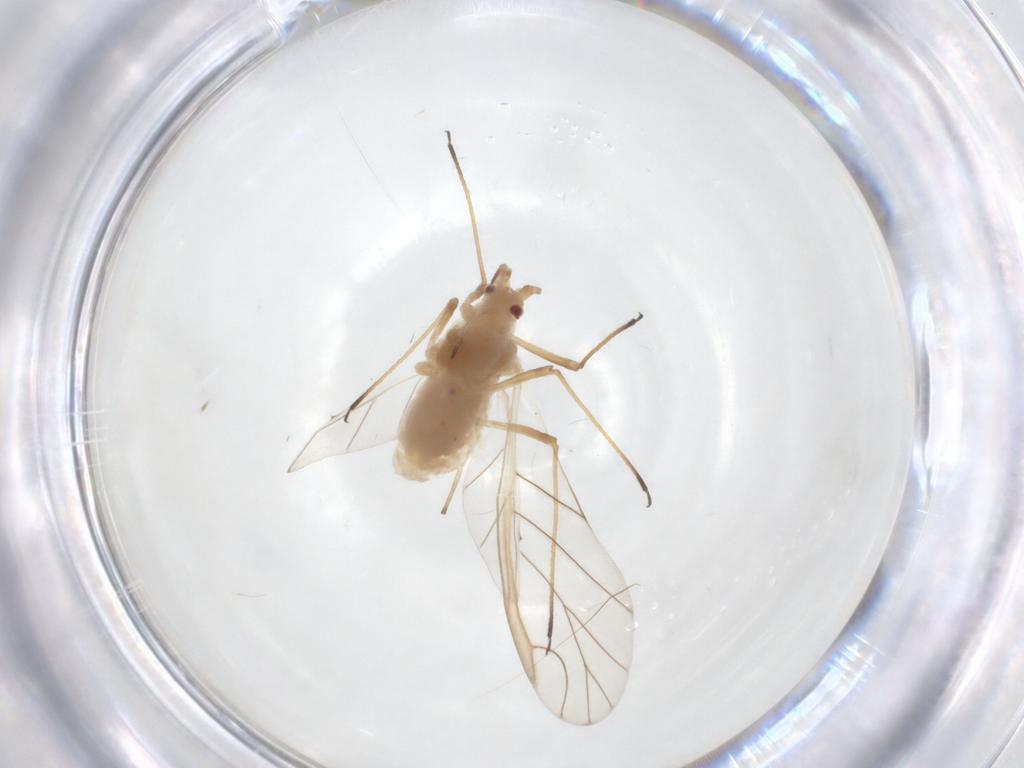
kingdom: Animalia
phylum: Arthropoda
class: Insecta
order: Hemiptera
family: Aphididae
